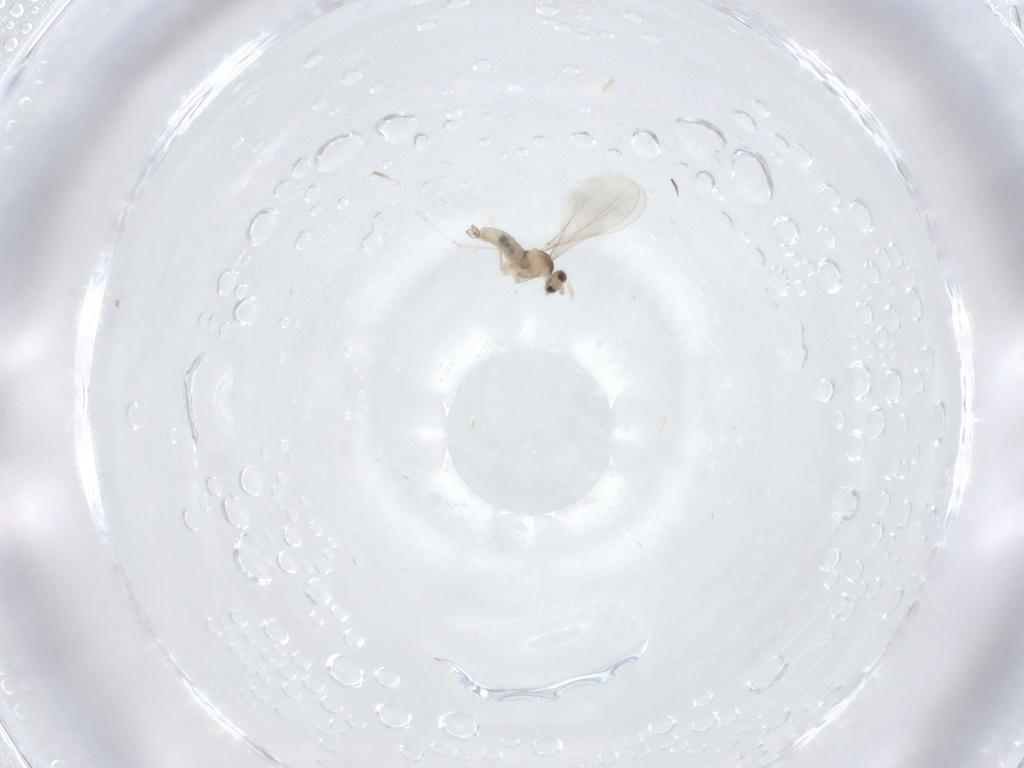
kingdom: Animalia
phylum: Arthropoda
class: Insecta
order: Diptera
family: Cecidomyiidae
